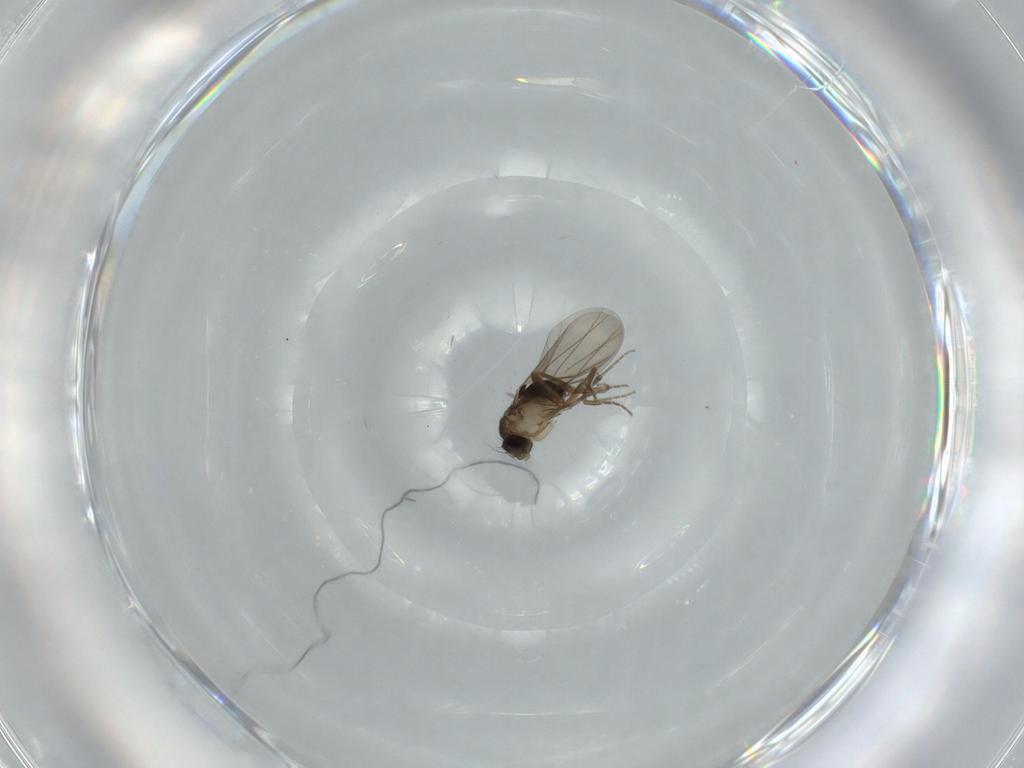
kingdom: Animalia
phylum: Arthropoda
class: Insecta
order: Diptera
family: Phoridae
